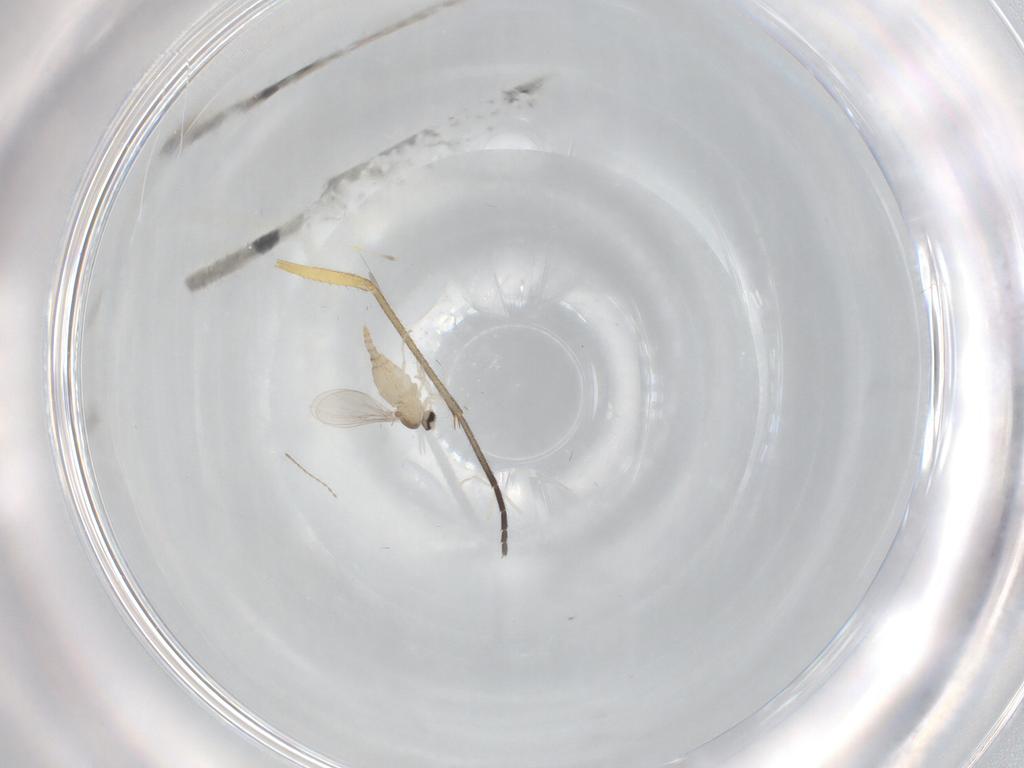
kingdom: Animalia
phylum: Arthropoda
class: Insecta
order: Diptera
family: Cecidomyiidae
